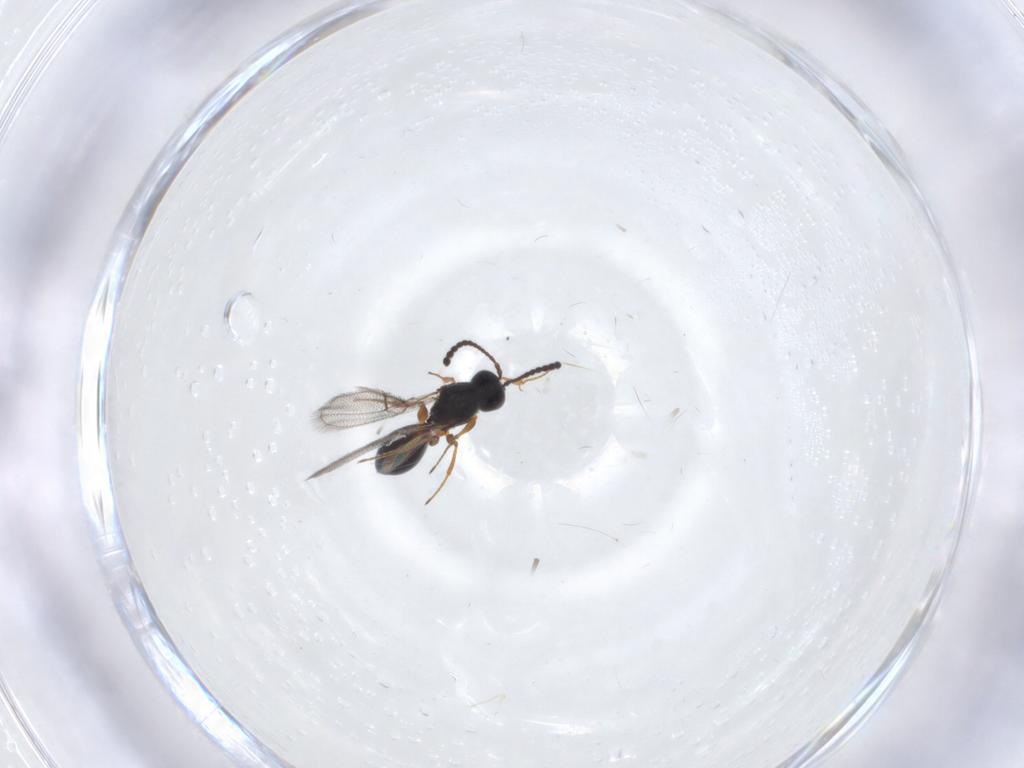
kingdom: Animalia
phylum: Arthropoda
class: Insecta
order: Hymenoptera
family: Figitidae
